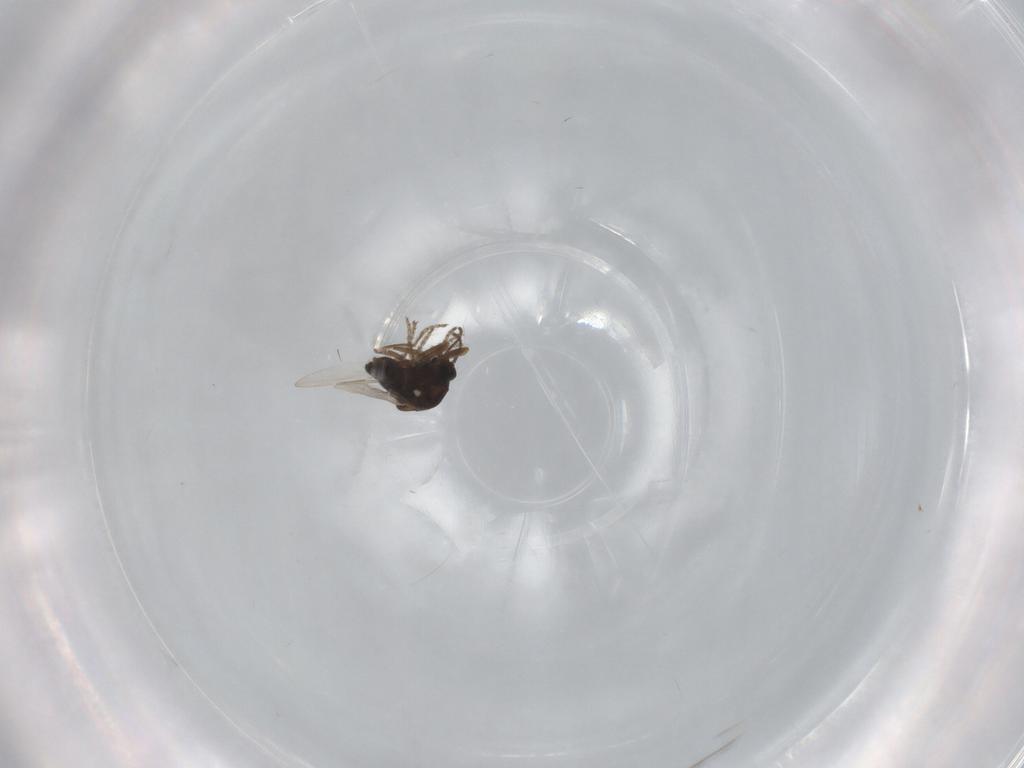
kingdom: Animalia
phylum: Arthropoda
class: Insecta
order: Diptera
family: Ceratopogonidae
